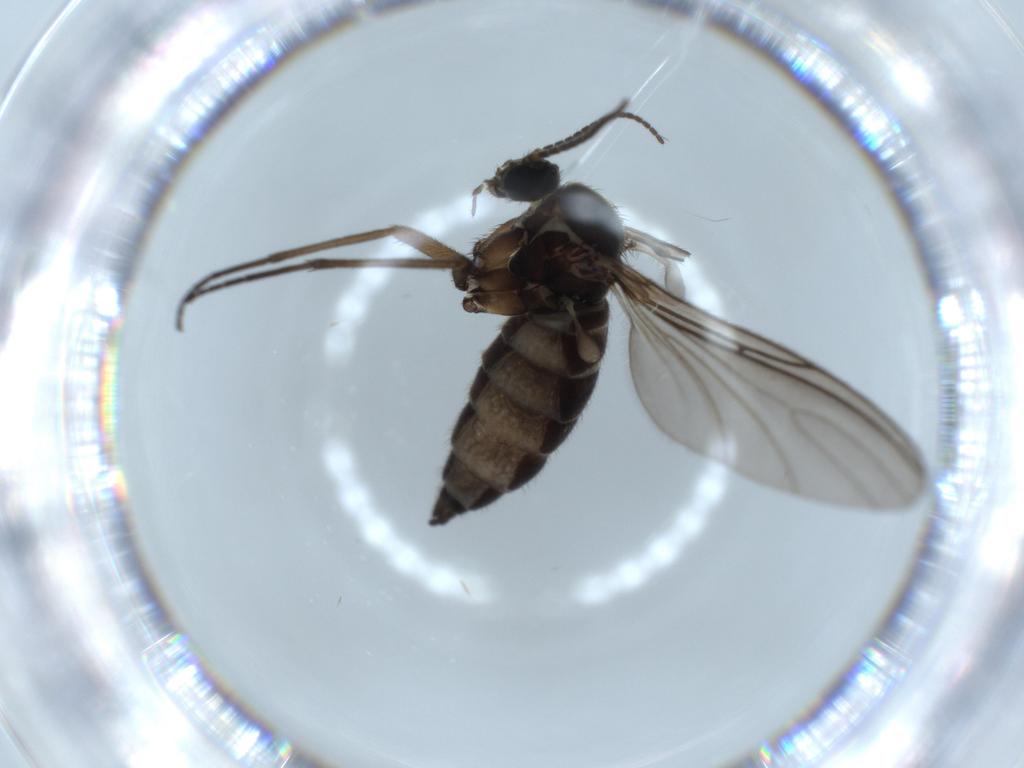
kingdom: Animalia
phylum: Arthropoda
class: Insecta
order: Diptera
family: Sciaridae
